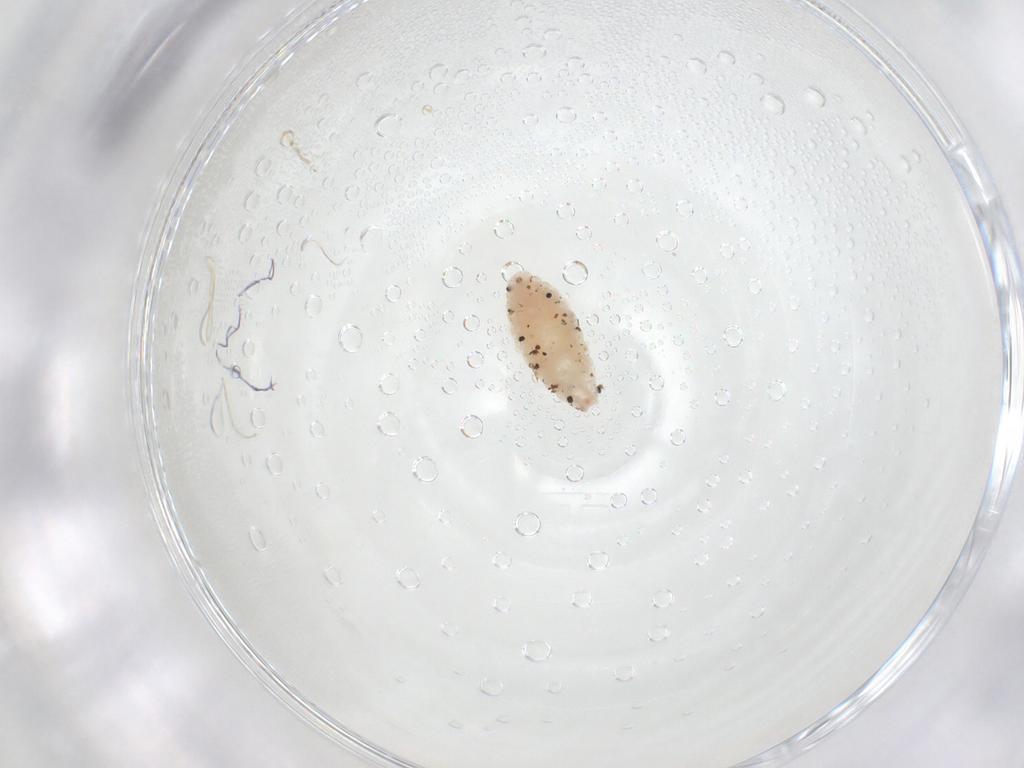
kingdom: Animalia
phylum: Arthropoda
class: Insecta
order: Diptera
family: Cecidomyiidae
